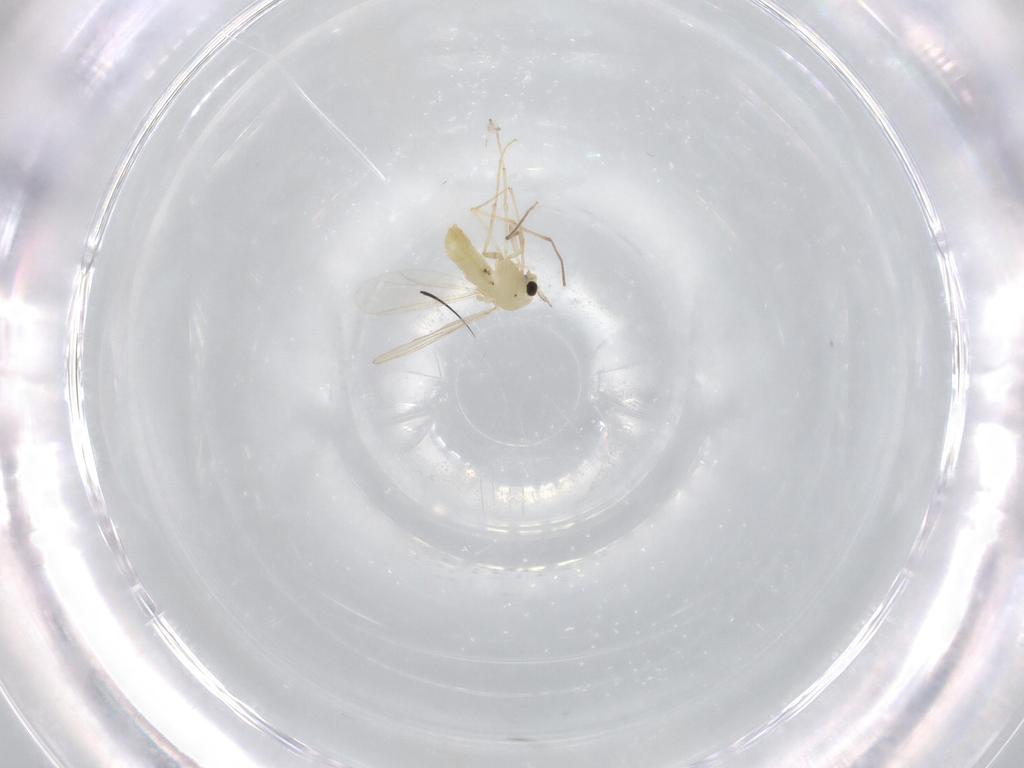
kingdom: Animalia
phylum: Arthropoda
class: Insecta
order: Diptera
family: Chironomidae
